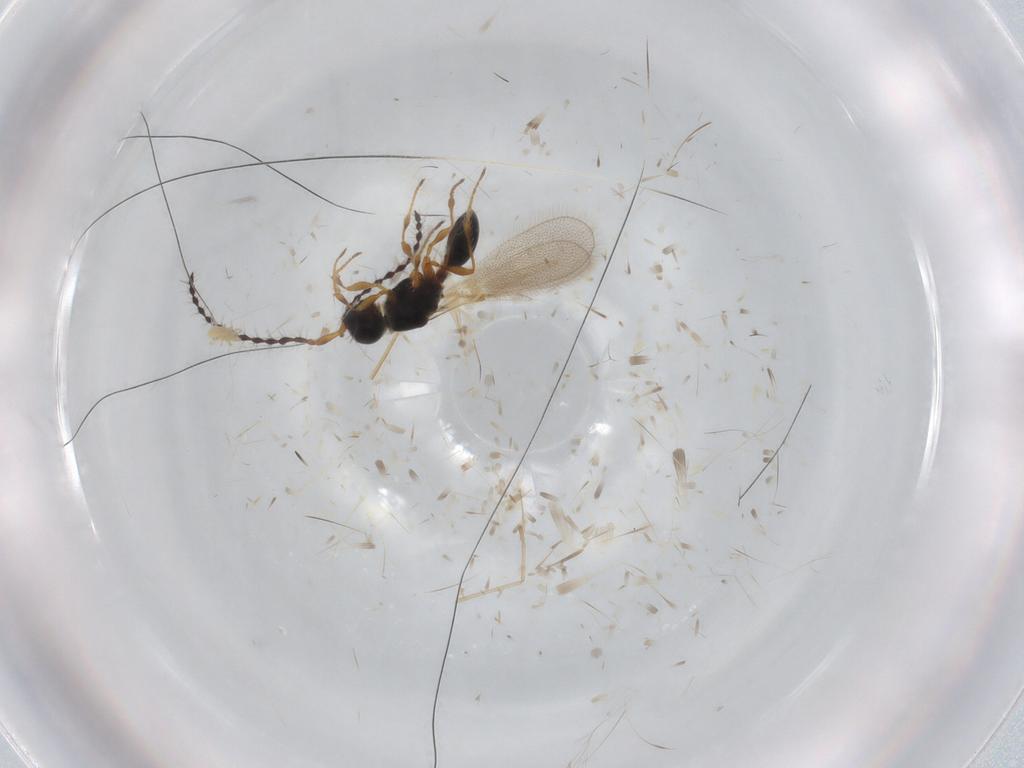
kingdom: Animalia
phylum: Arthropoda
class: Insecta
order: Hymenoptera
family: Diapriidae
